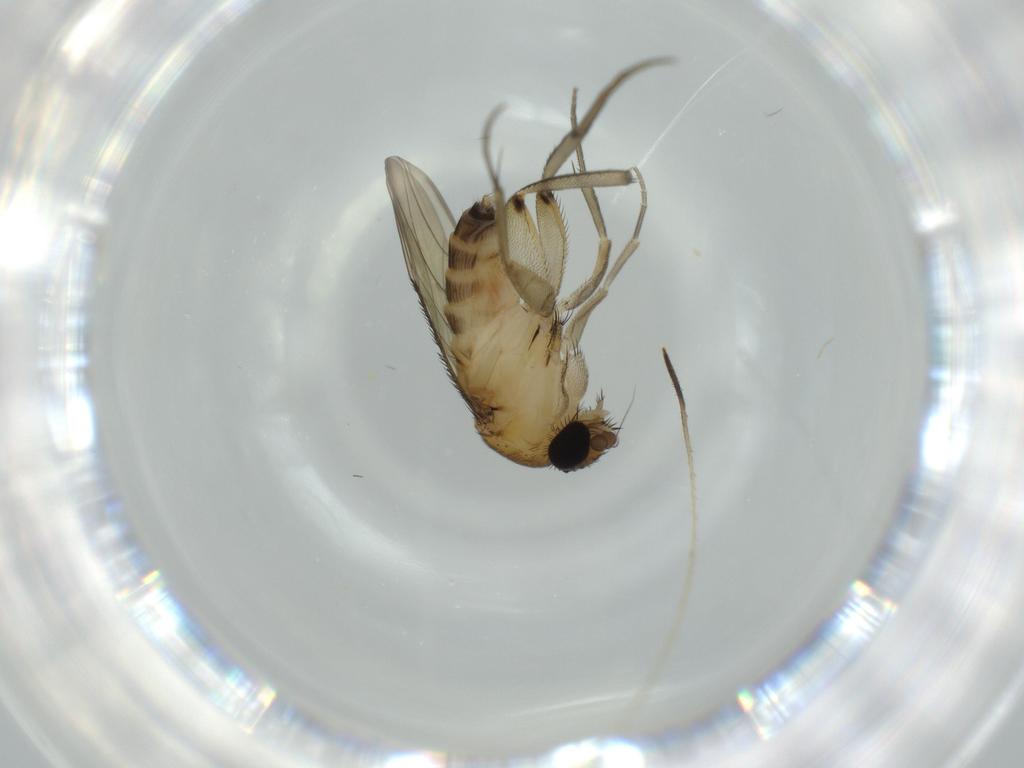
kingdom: Animalia
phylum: Arthropoda
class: Insecta
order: Diptera
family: Phoridae
